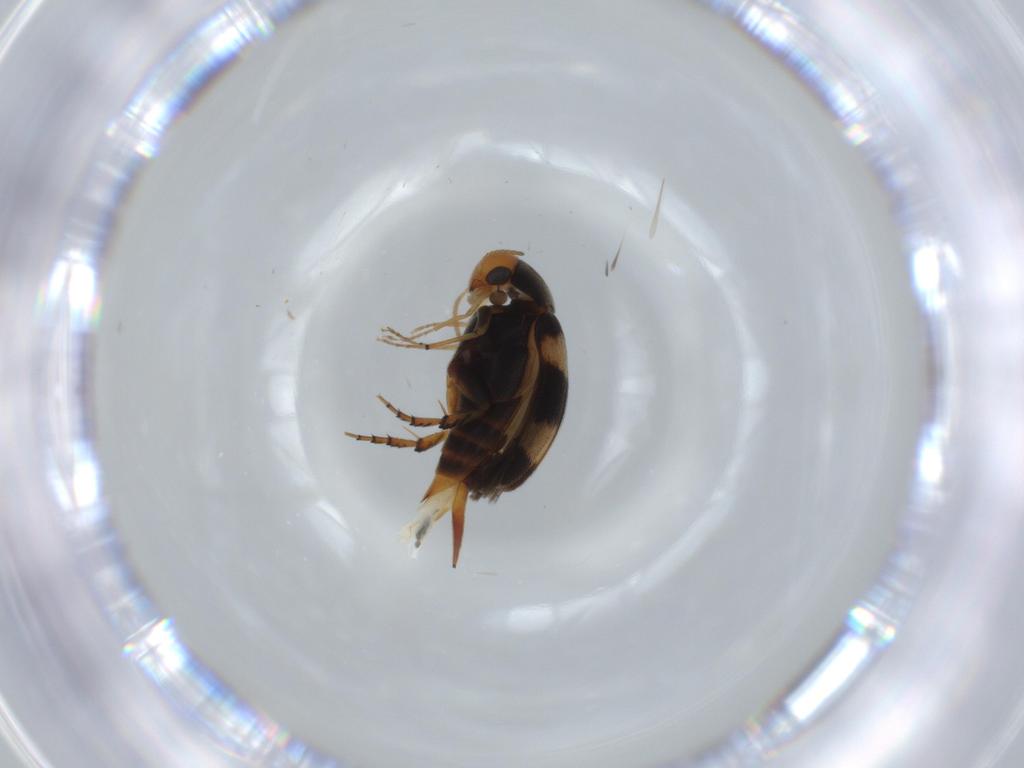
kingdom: Animalia
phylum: Arthropoda
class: Insecta
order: Coleoptera
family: Mordellidae
